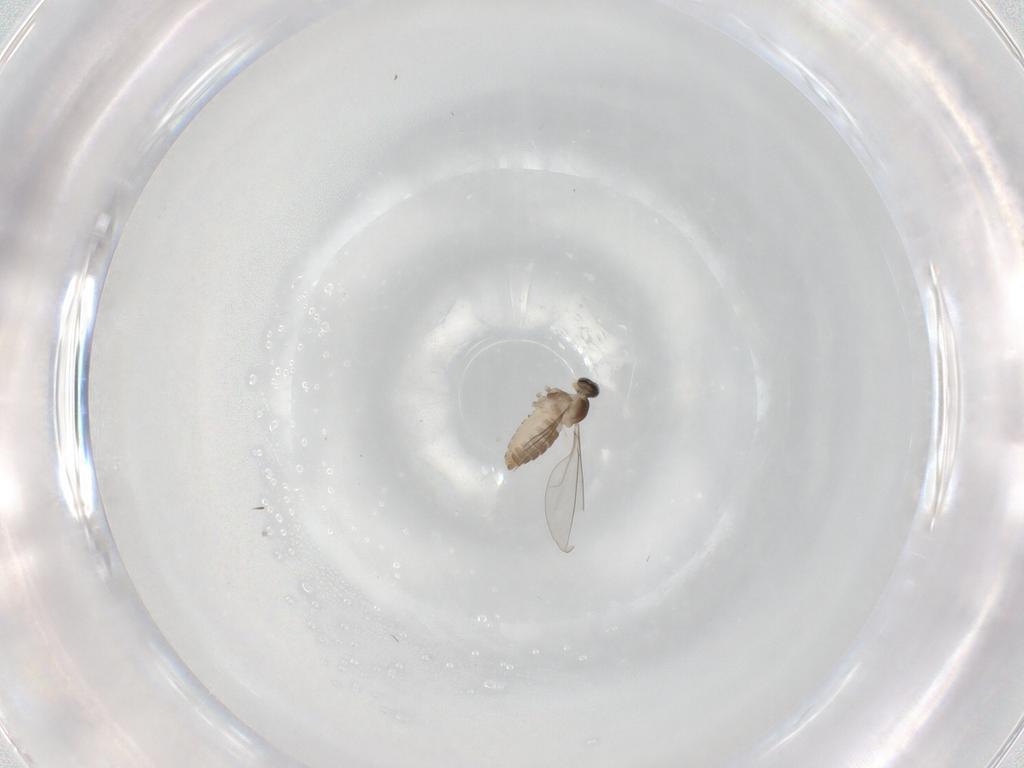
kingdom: Animalia
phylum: Arthropoda
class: Insecta
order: Diptera
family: Cecidomyiidae
